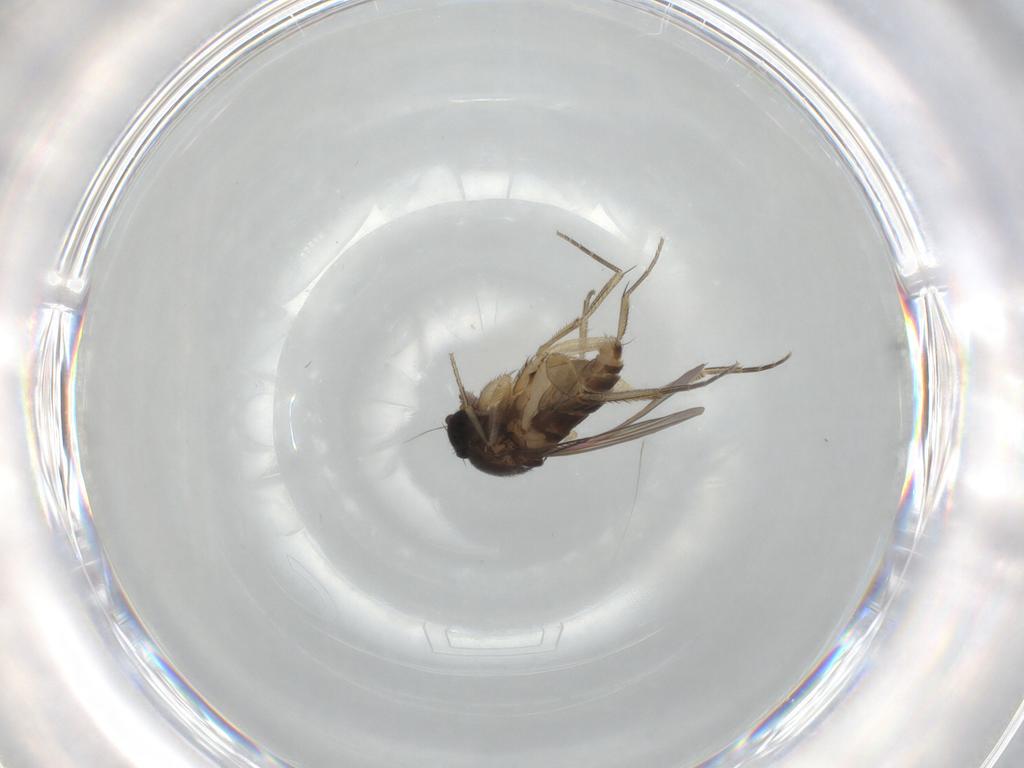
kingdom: Animalia
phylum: Arthropoda
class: Insecta
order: Diptera
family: Phoridae
